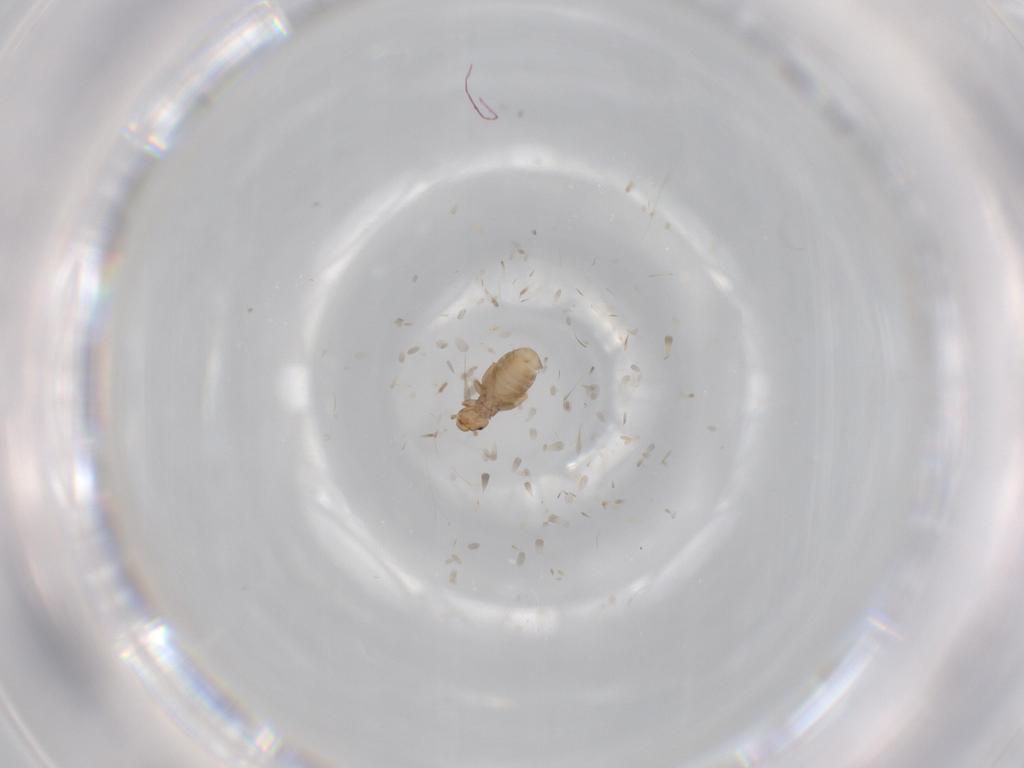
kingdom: Animalia
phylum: Arthropoda
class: Insecta
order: Psocodea
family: Liposcelididae
